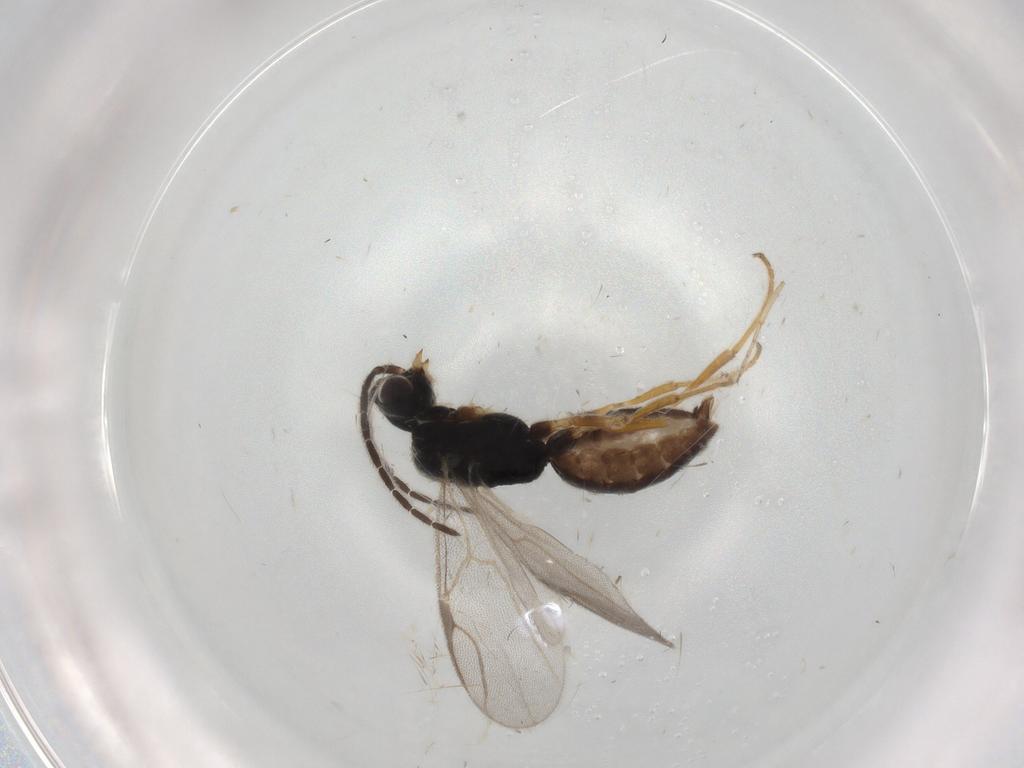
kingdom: Animalia
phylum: Arthropoda
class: Insecta
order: Hymenoptera
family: Dryinidae
